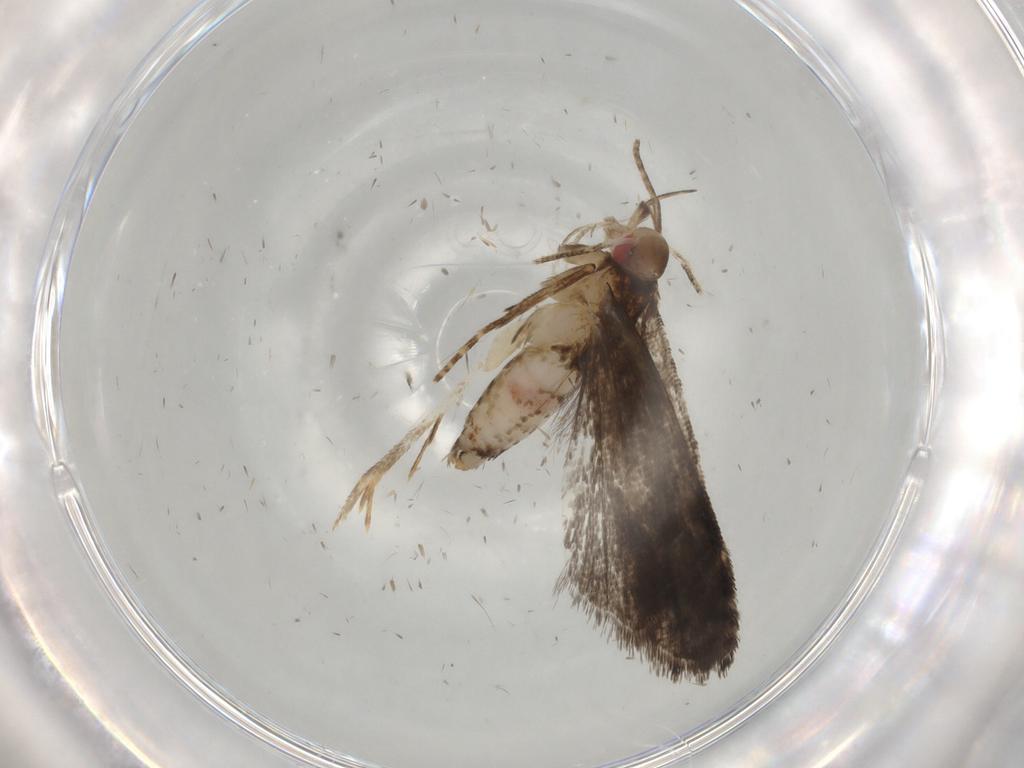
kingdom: Animalia
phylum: Arthropoda
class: Insecta
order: Lepidoptera
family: Gelechiidae
